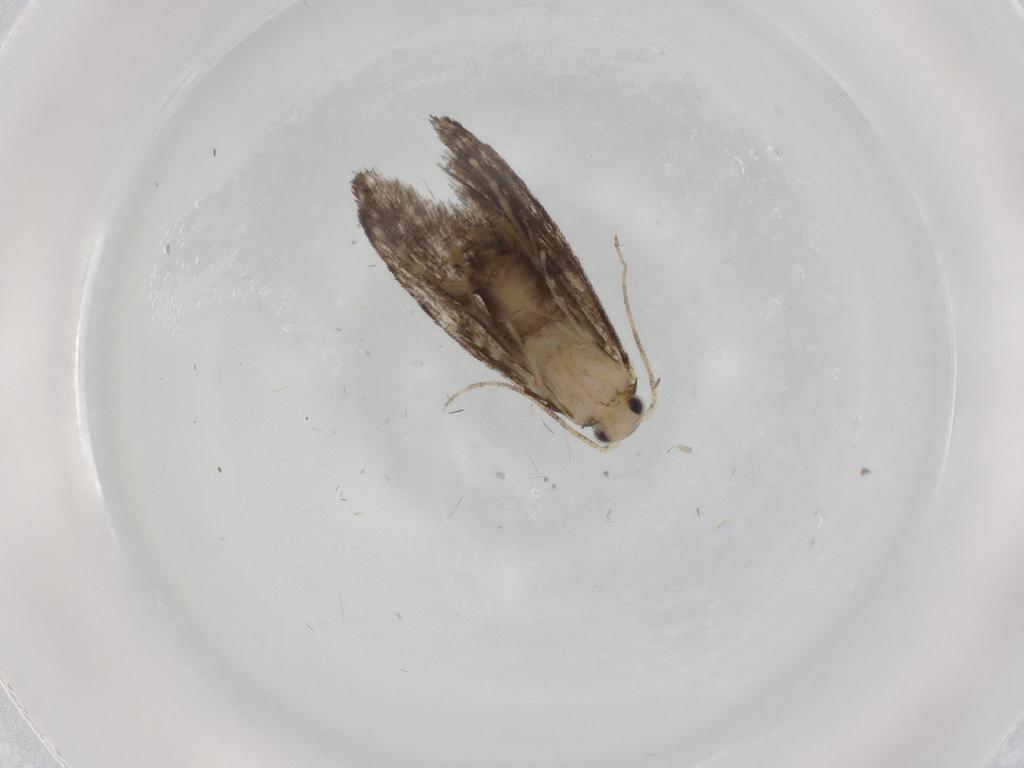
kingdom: Animalia
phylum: Arthropoda
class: Insecta
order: Lepidoptera
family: Tineidae
